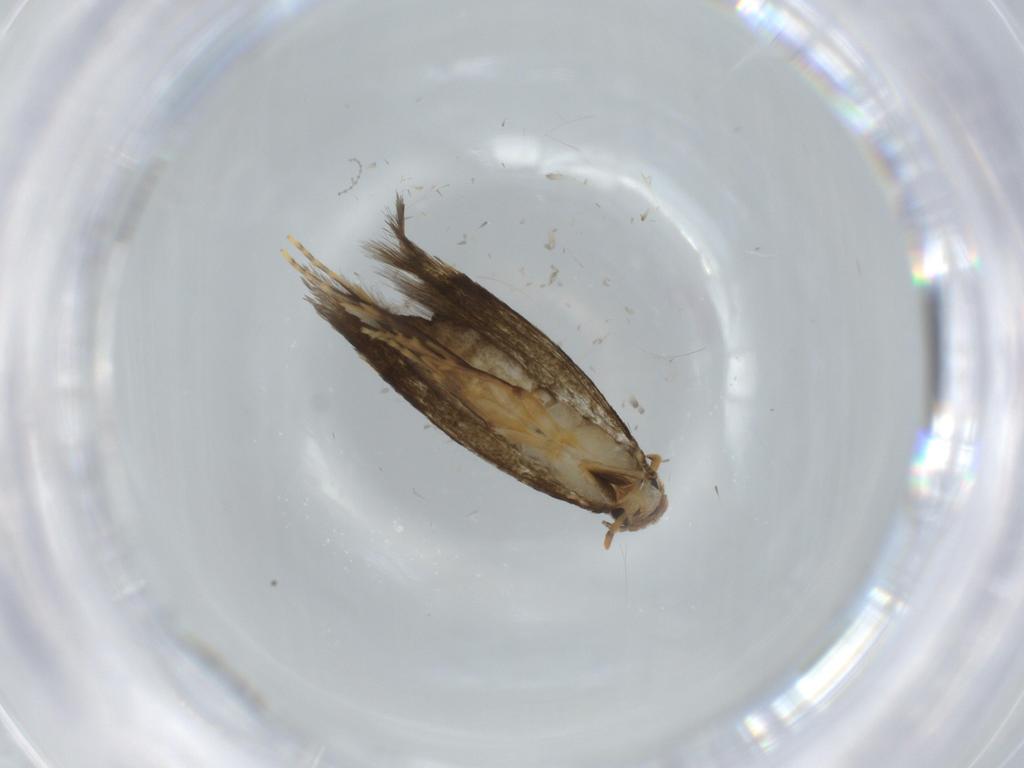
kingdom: Animalia
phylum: Arthropoda
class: Insecta
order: Lepidoptera
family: Tineidae
